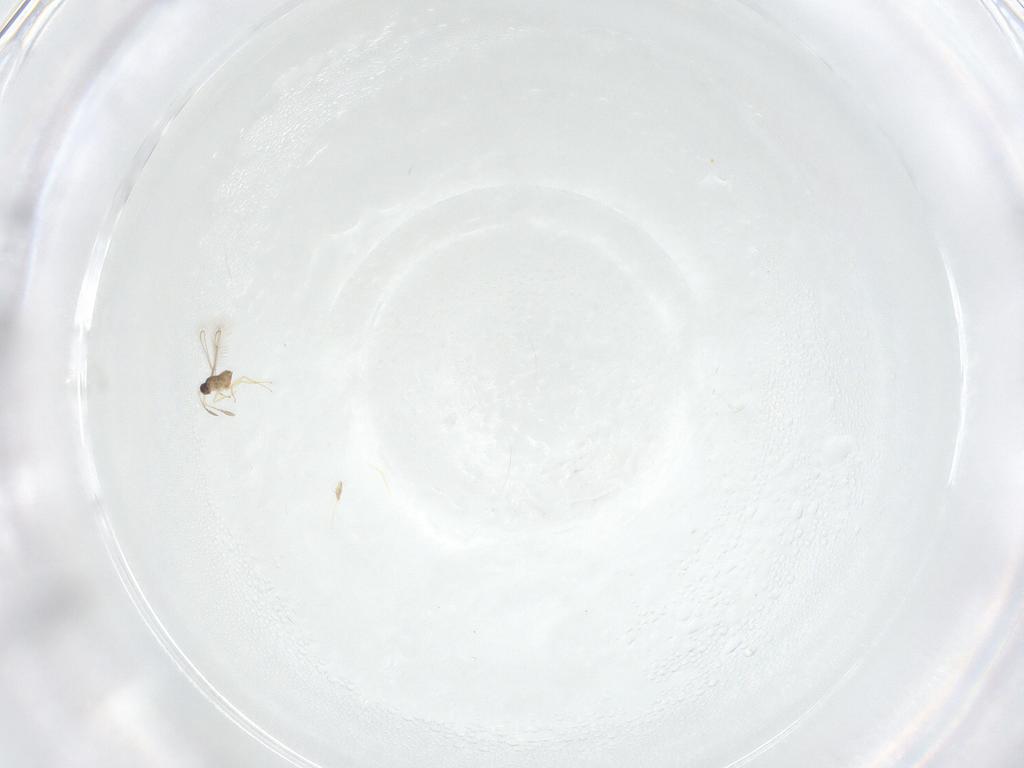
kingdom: Animalia
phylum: Arthropoda
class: Insecta
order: Hymenoptera
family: Mymaridae
